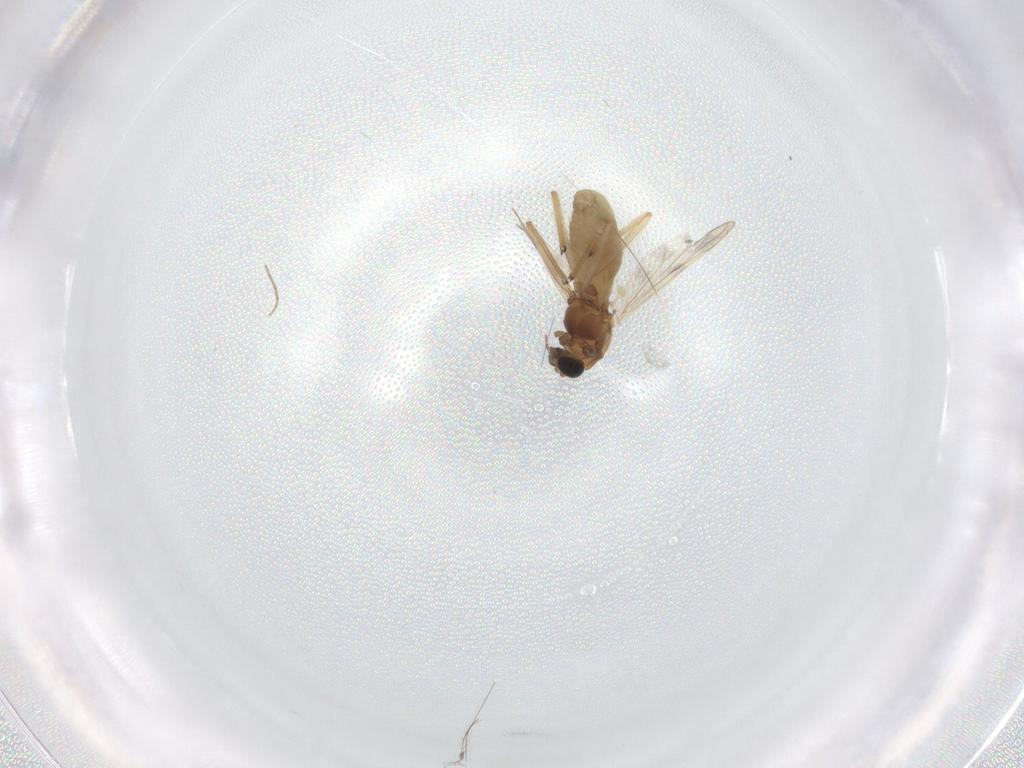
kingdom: Animalia
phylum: Arthropoda
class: Insecta
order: Diptera
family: Chironomidae
